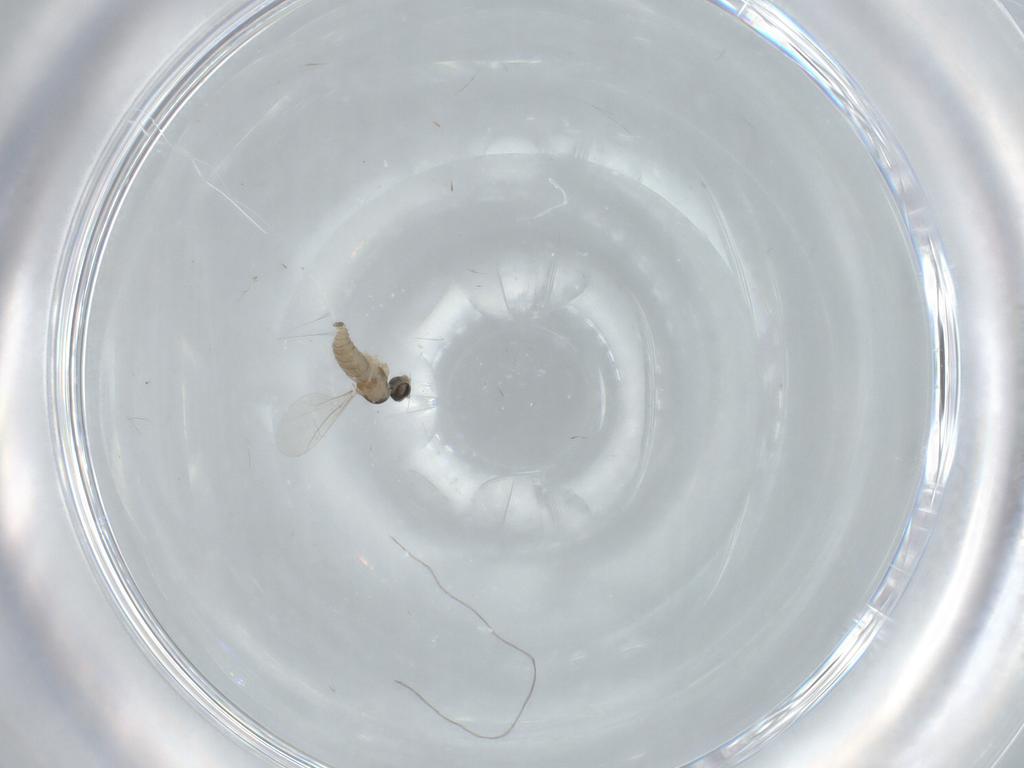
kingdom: Animalia
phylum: Arthropoda
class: Insecta
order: Diptera
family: Cecidomyiidae
